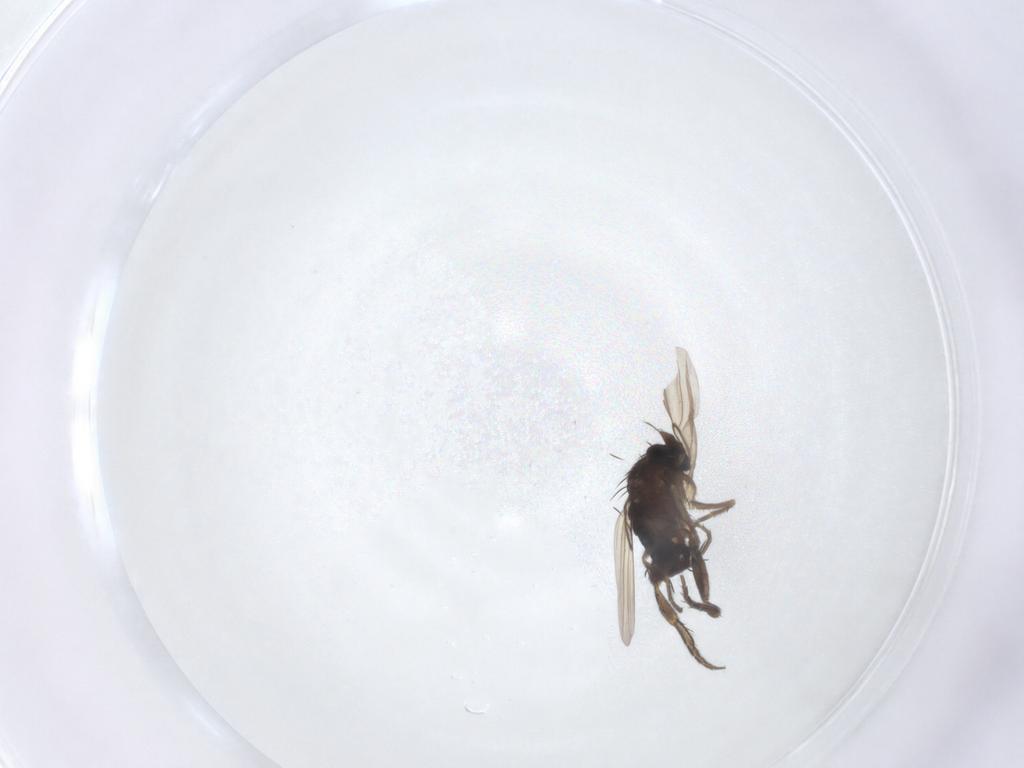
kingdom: Animalia
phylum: Arthropoda
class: Insecta
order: Diptera
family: Phoridae
